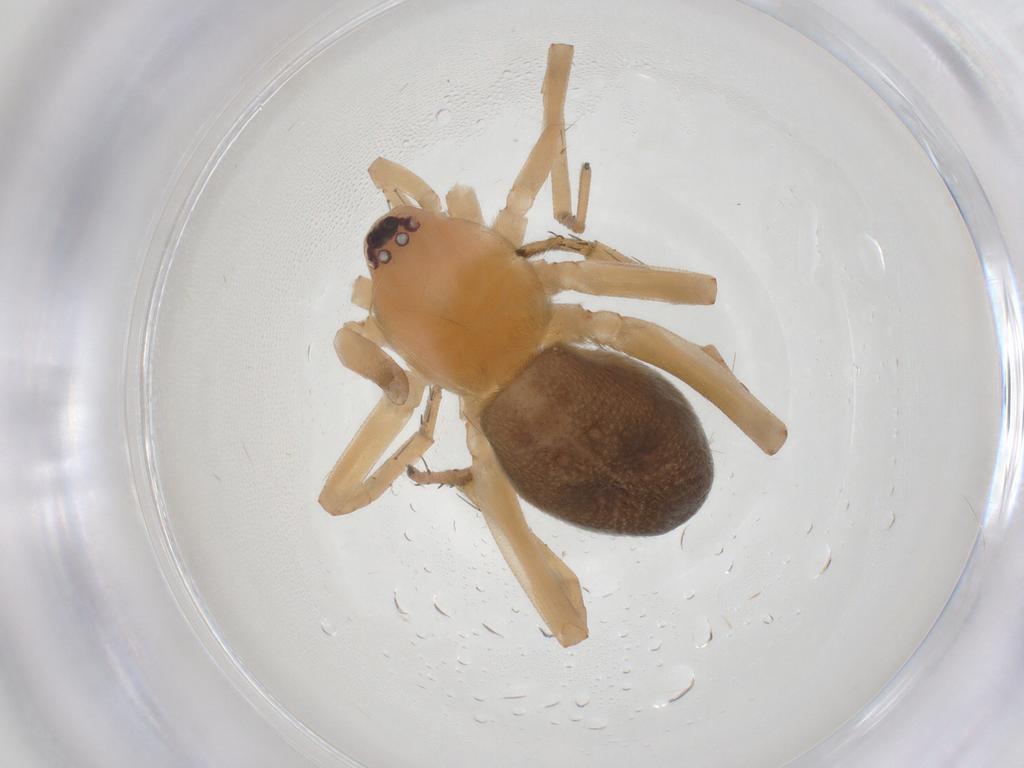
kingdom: Animalia
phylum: Arthropoda
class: Arachnida
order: Araneae
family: Corinnidae
